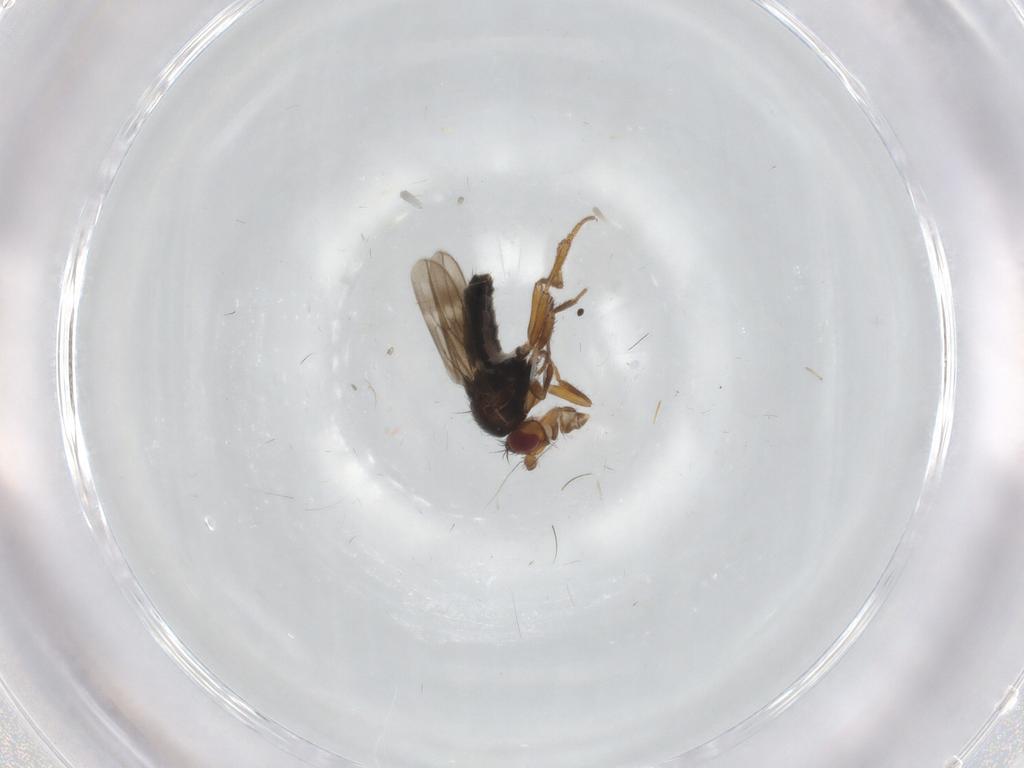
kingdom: Animalia
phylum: Arthropoda
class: Insecta
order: Diptera
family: Sphaeroceridae
